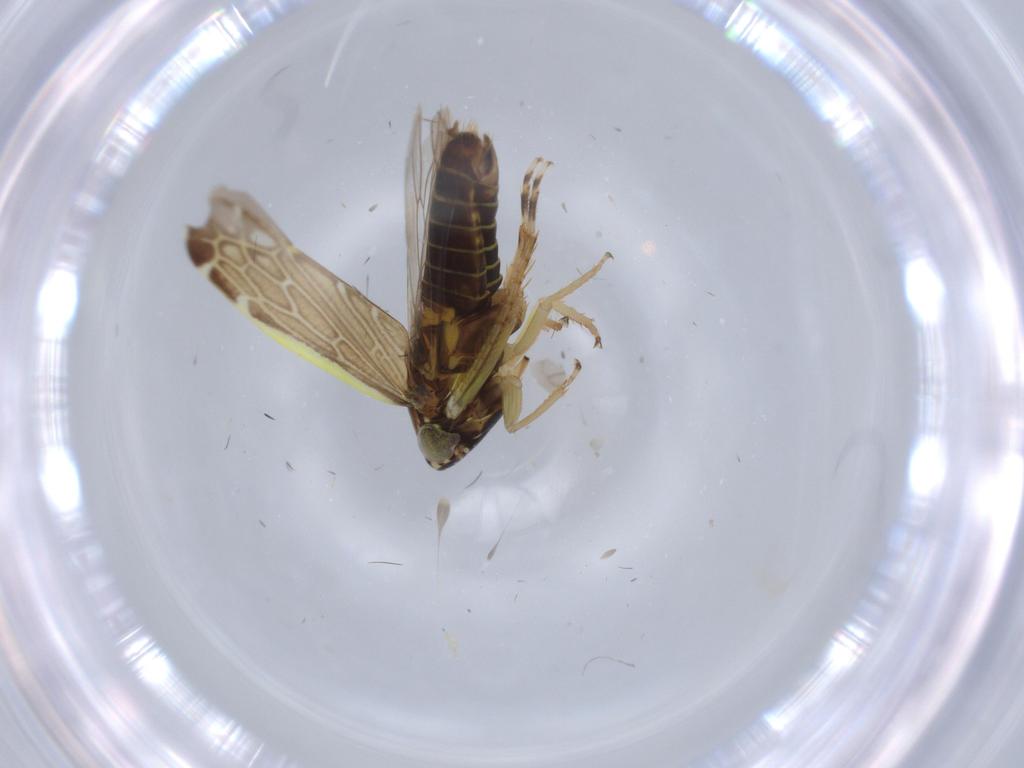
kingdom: Animalia
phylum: Arthropoda
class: Insecta
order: Hemiptera
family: Cicadellidae
